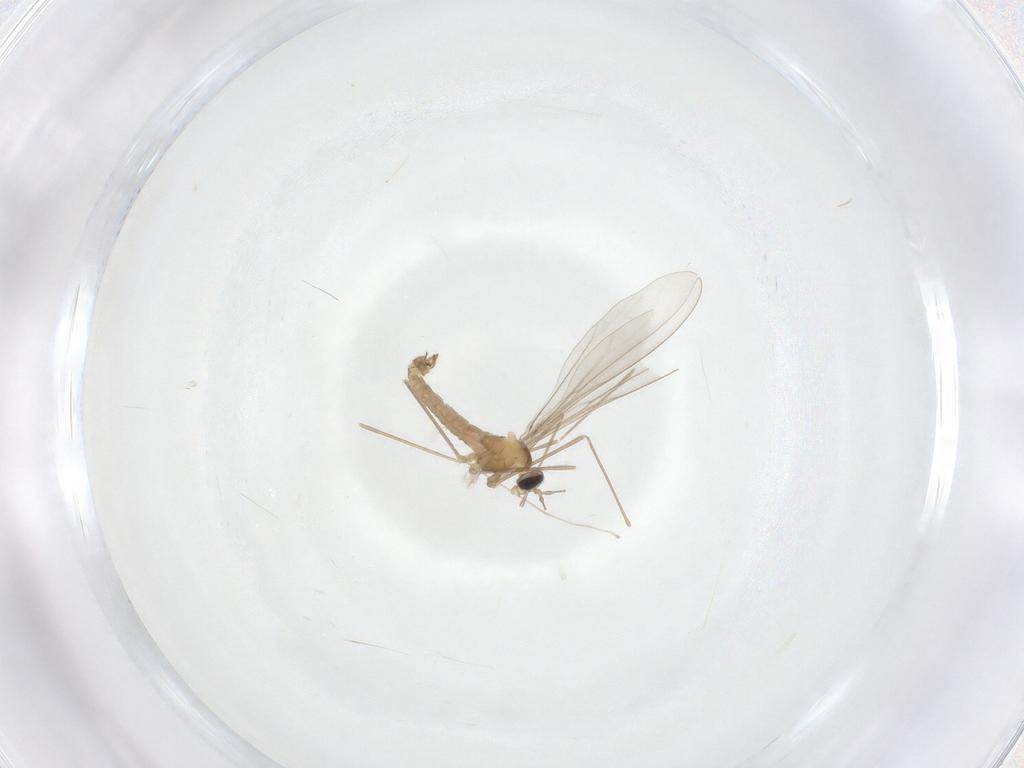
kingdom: Animalia
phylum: Arthropoda
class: Insecta
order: Diptera
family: Cecidomyiidae
